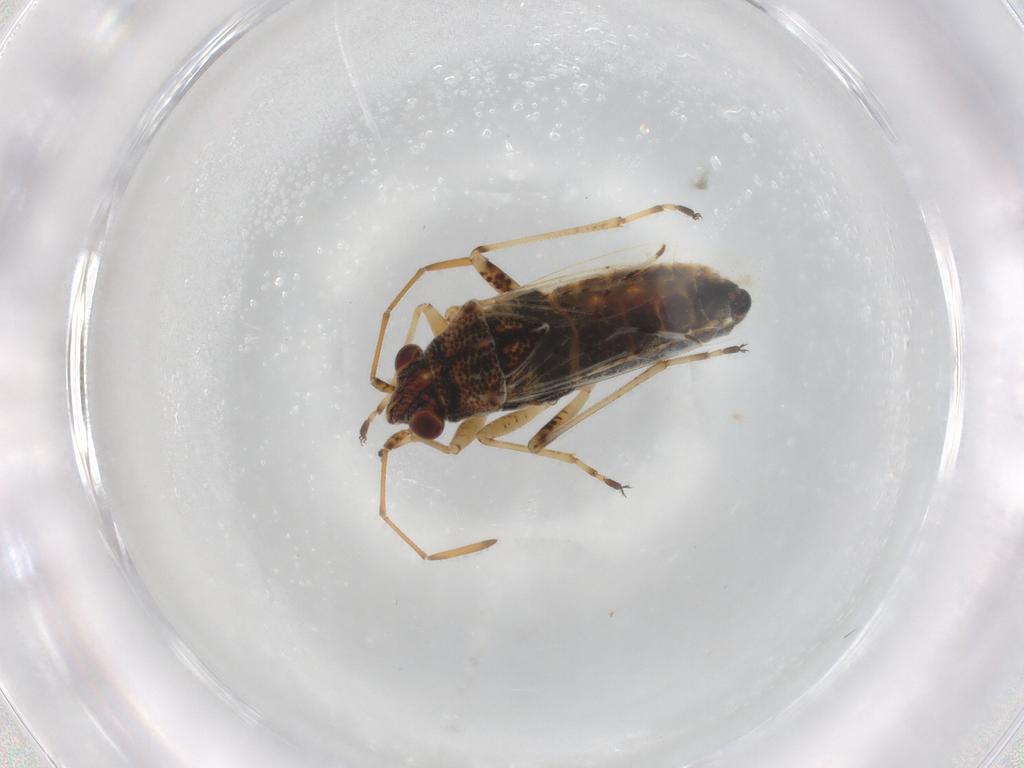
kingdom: Animalia
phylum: Arthropoda
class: Insecta
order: Hemiptera
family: Lygaeidae
